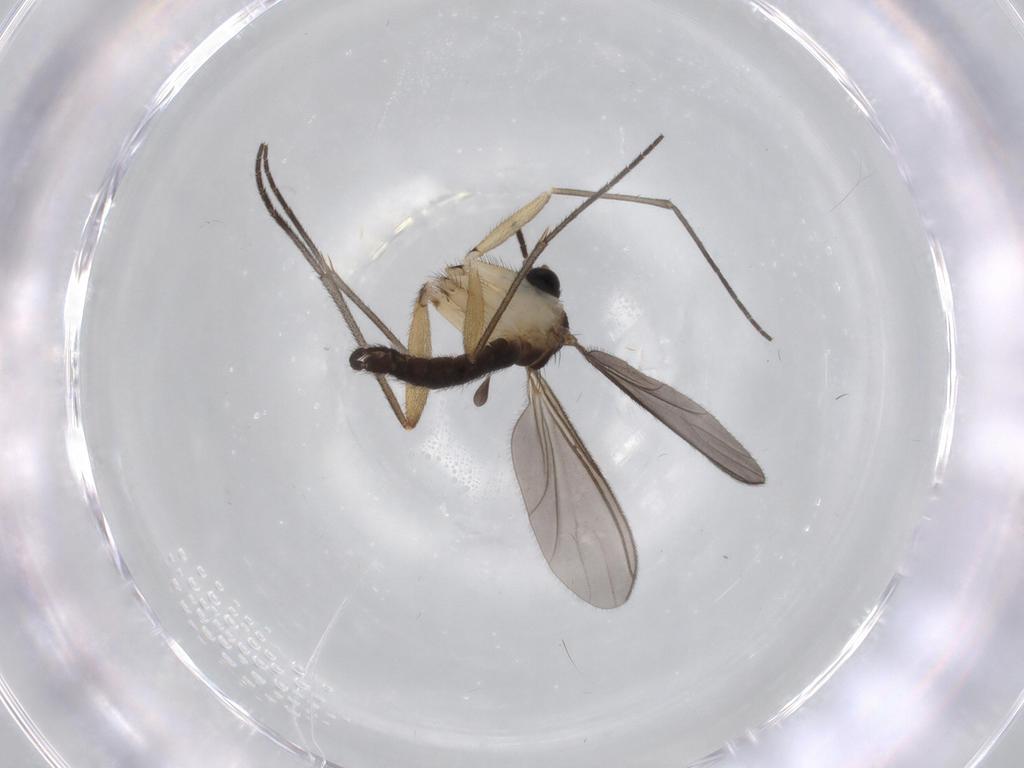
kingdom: Animalia
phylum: Arthropoda
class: Insecta
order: Diptera
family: Sciaridae
